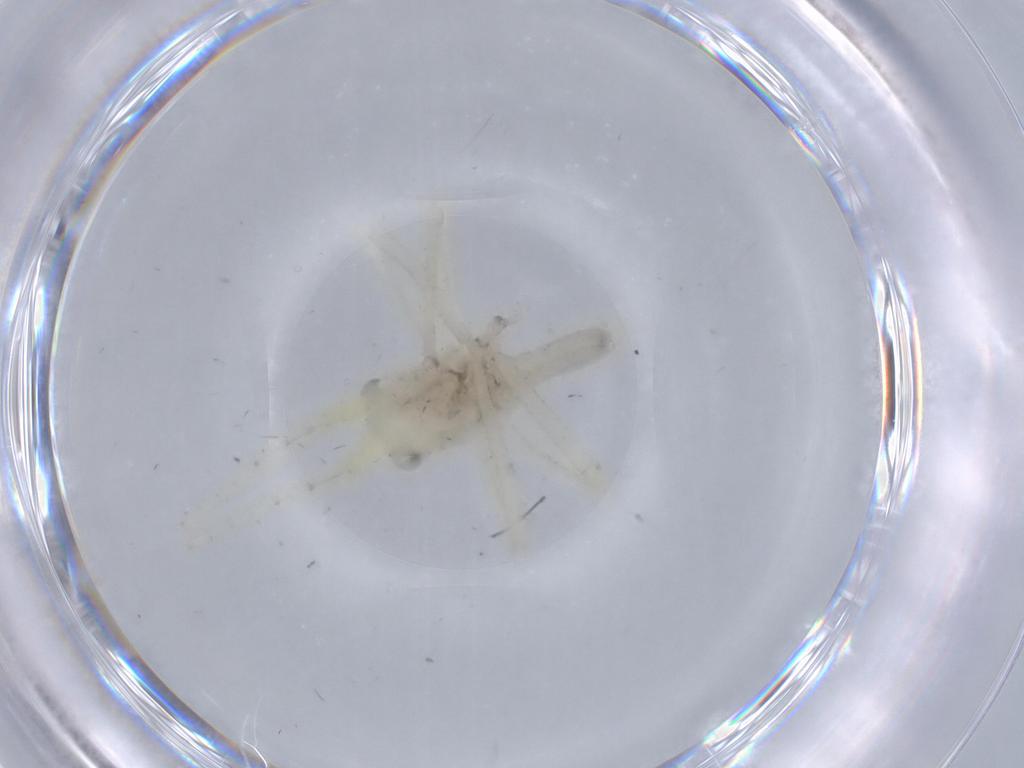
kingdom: Animalia
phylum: Arthropoda
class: Insecta
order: Orthoptera
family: Tettigoniidae
